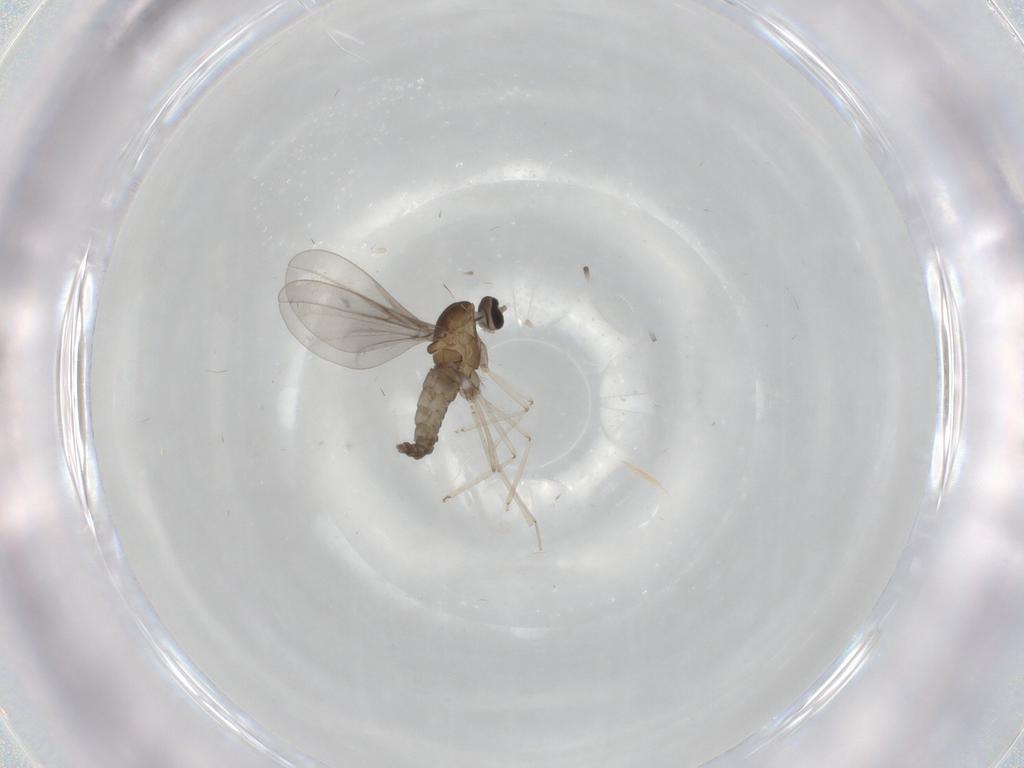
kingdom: Animalia
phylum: Arthropoda
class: Insecta
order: Diptera
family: Cecidomyiidae
